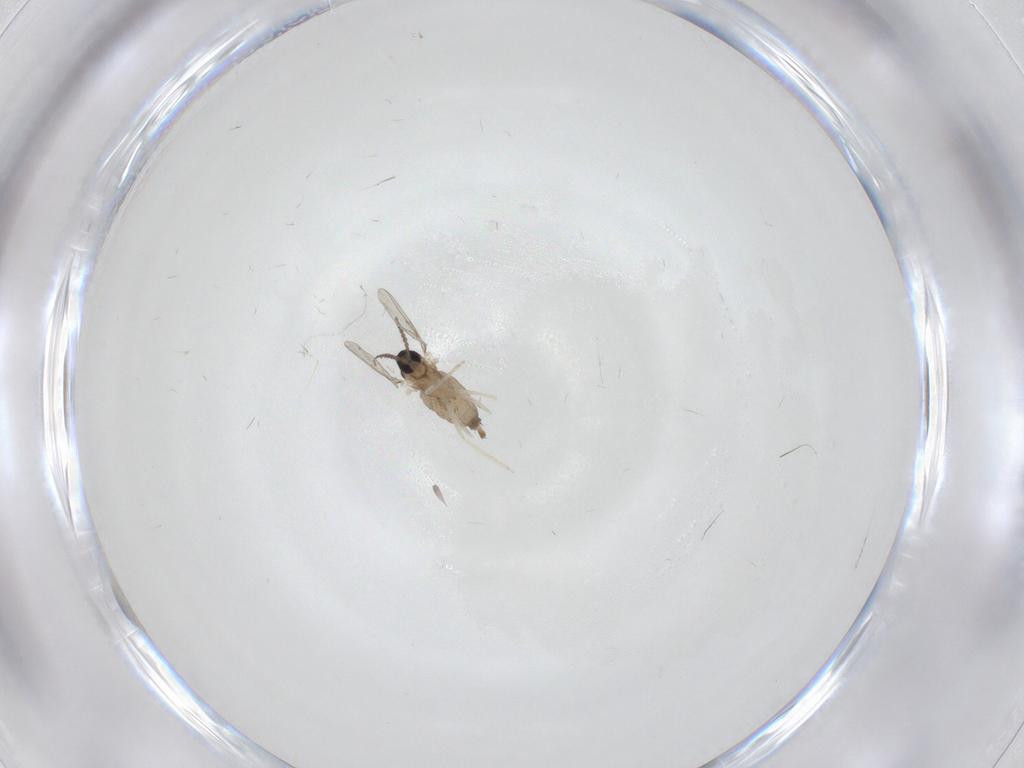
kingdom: Animalia
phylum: Arthropoda
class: Insecta
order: Diptera
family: Cecidomyiidae
